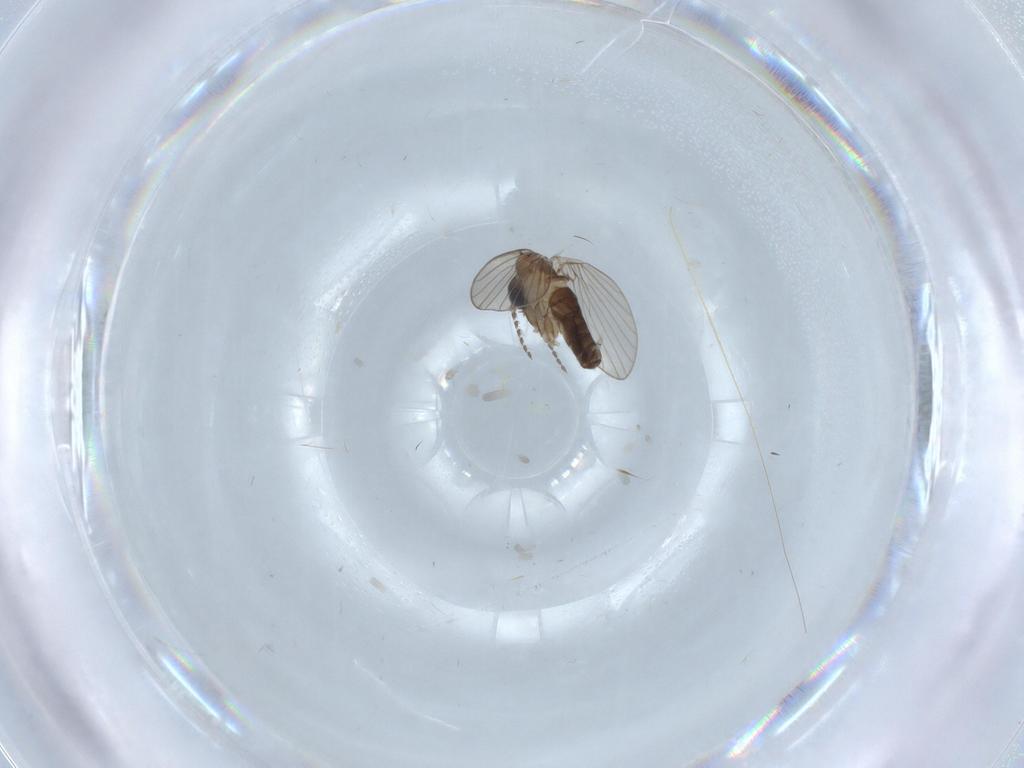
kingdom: Animalia
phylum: Arthropoda
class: Insecta
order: Diptera
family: Psychodidae
